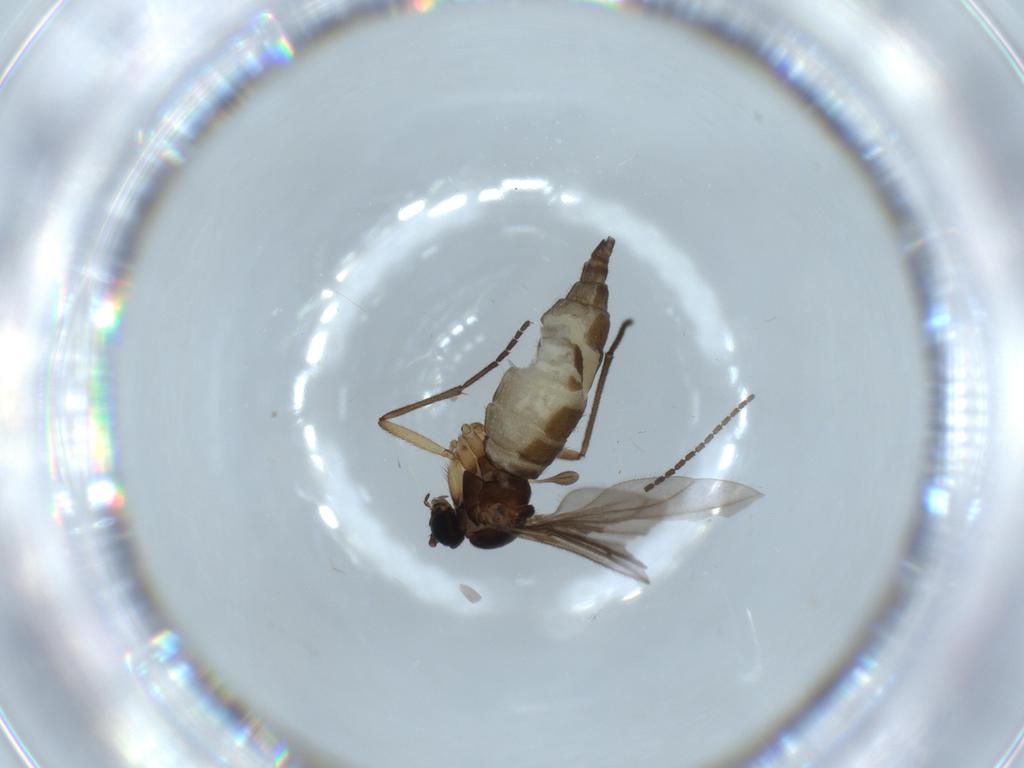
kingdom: Animalia
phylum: Arthropoda
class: Insecta
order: Diptera
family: Sciaridae
